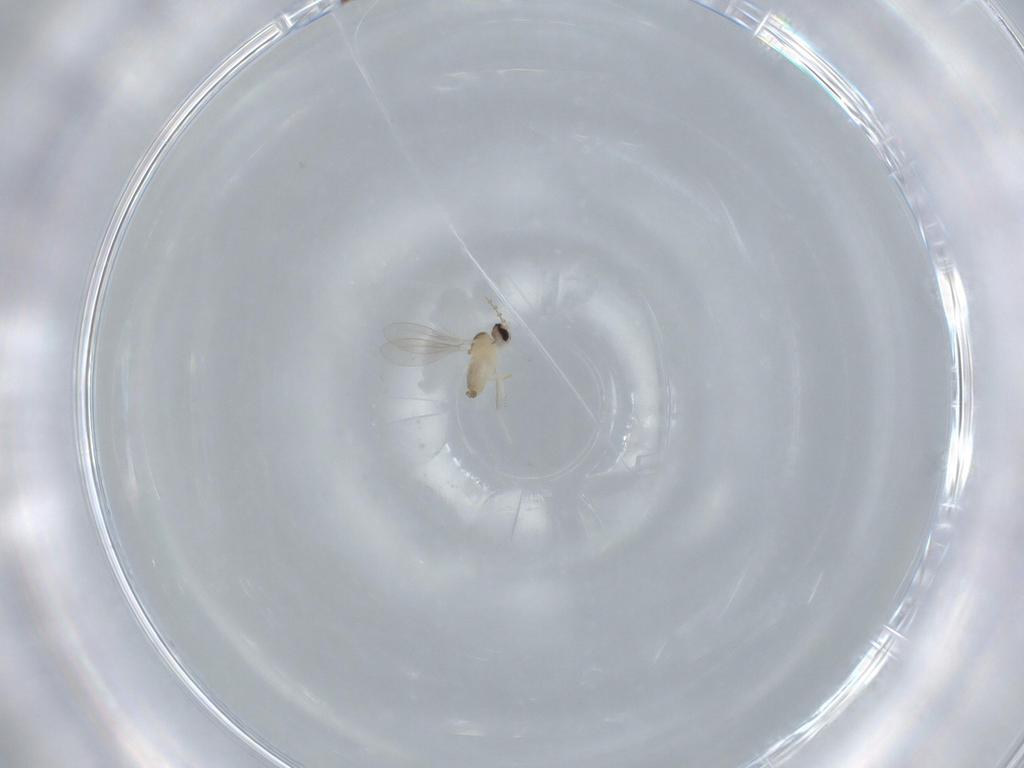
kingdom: Animalia
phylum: Arthropoda
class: Insecta
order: Diptera
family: Cecidomyiidae
